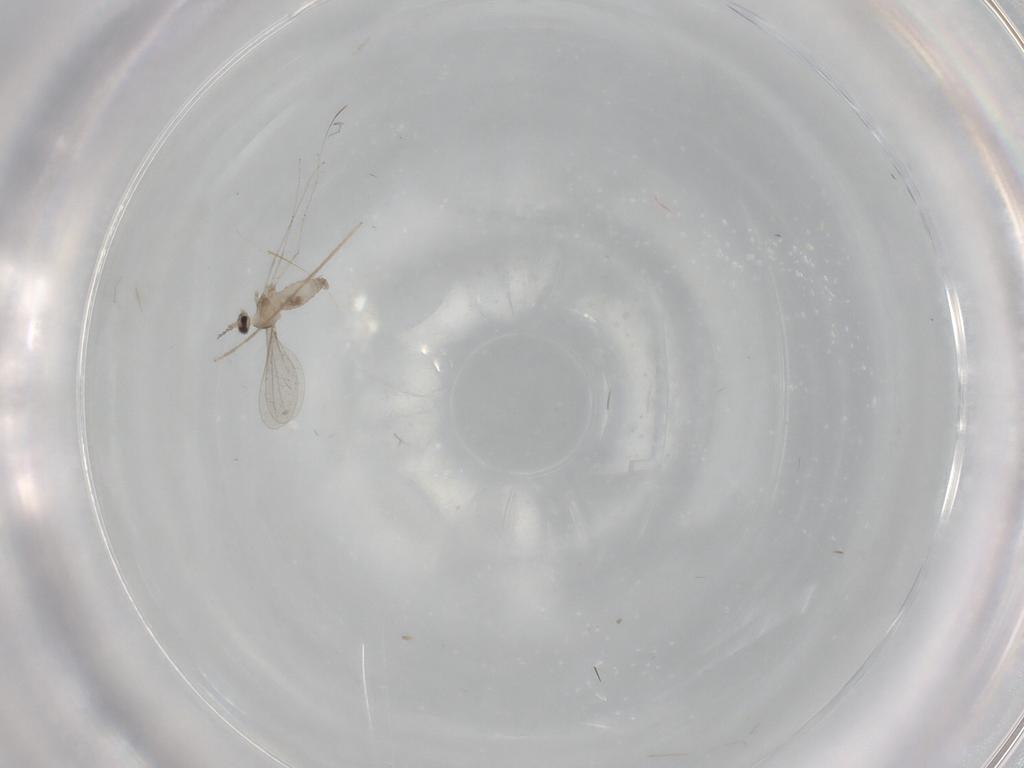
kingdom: Animalia
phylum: Arthropoda
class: Insecta
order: Diptera
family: Cecidomyiidae
